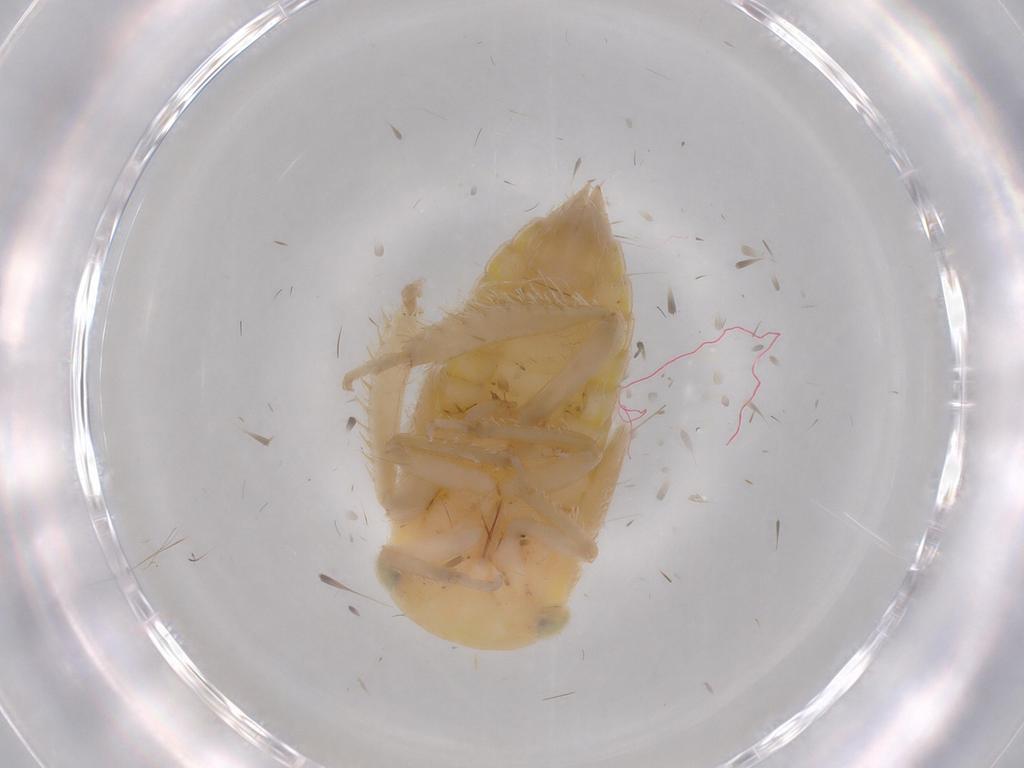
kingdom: Animalia
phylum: Arthropoda
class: Insecta
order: Hemiptera
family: Cicadellidae
